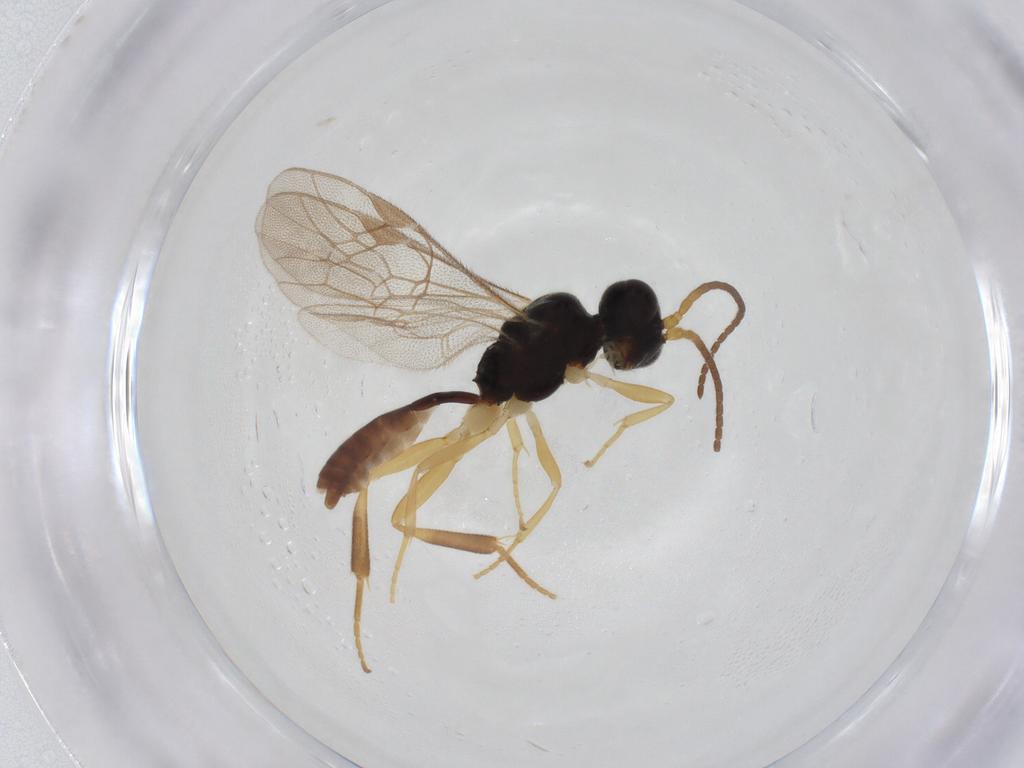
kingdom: Animalia
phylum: Arthropoda
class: Insecta
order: Hymenoptera
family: Ichneumonidae
